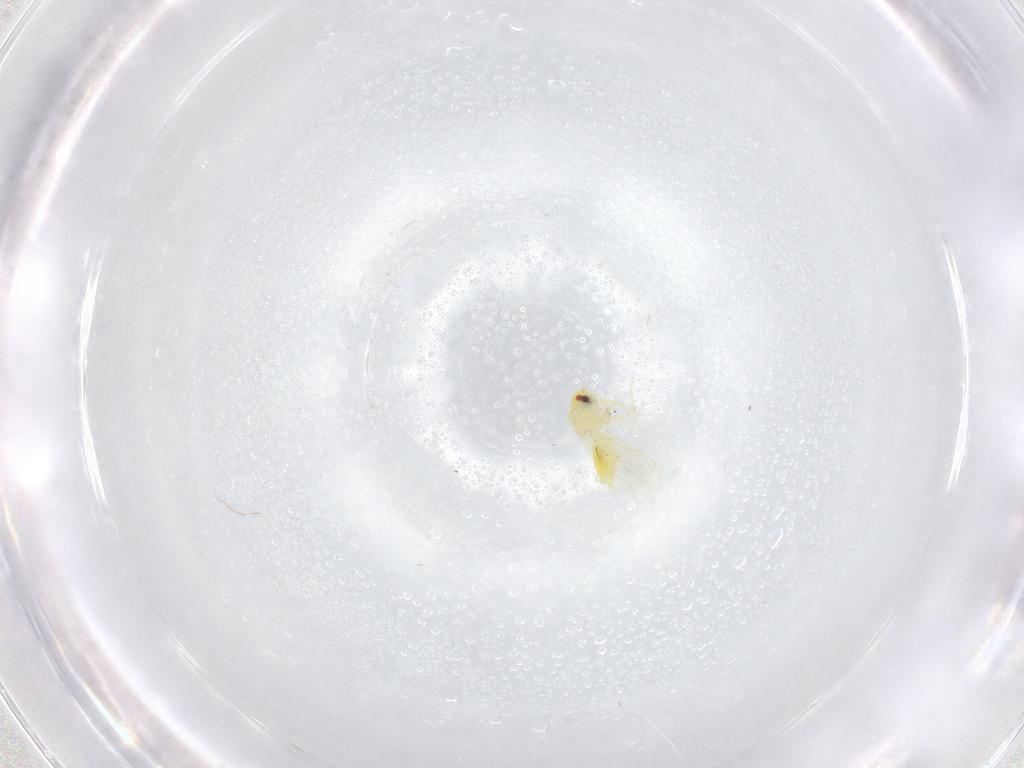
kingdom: Animalia
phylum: Arthropoda
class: Insecta
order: Hemiptera
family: Aleyrodidae
